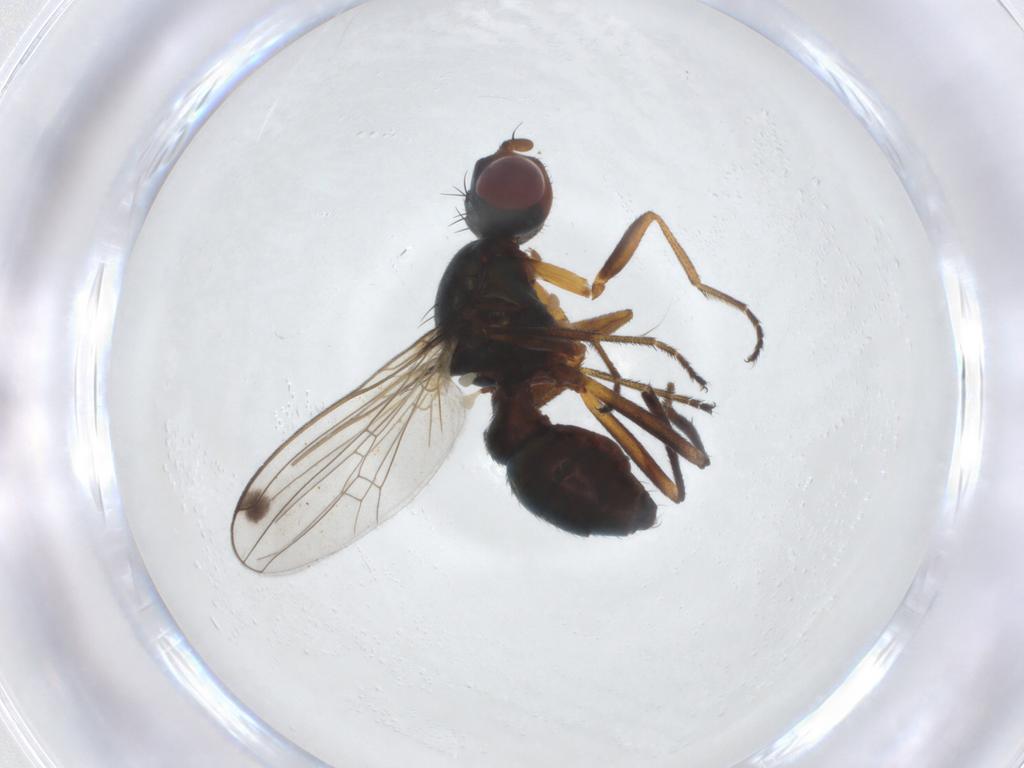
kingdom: Animalia
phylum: Arthropoda
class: Insecta
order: Diptera
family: Sepsidae
